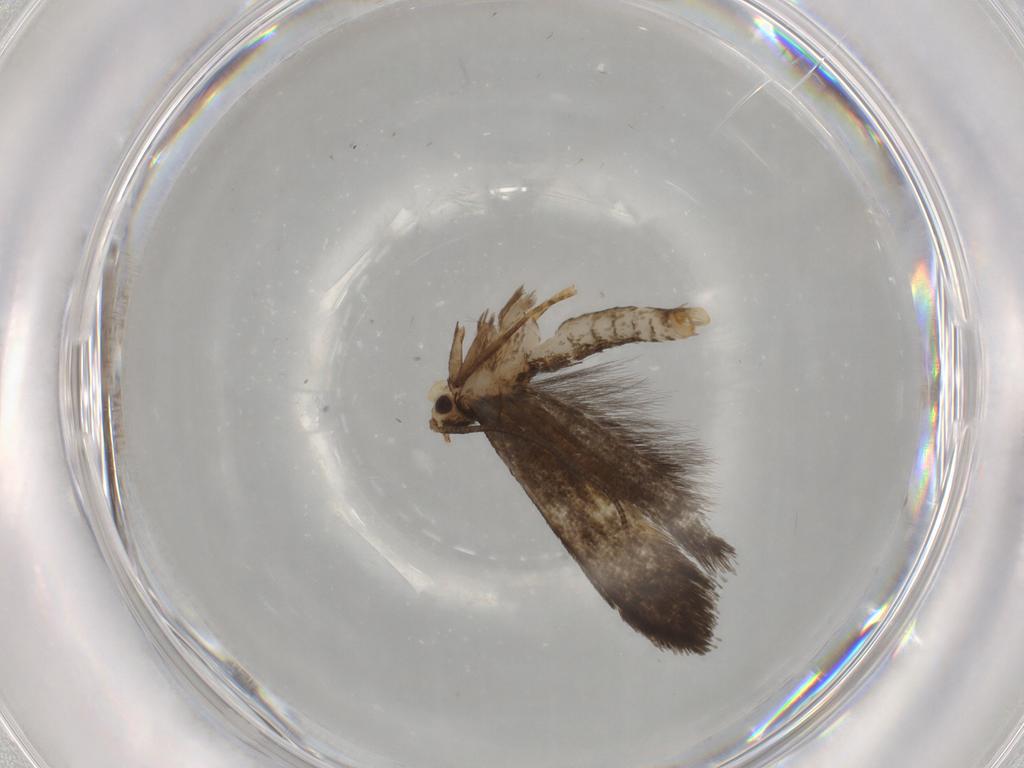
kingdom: Animalia
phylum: Arthropoda
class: Insecta
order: Lepidoptera
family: Tineidae
